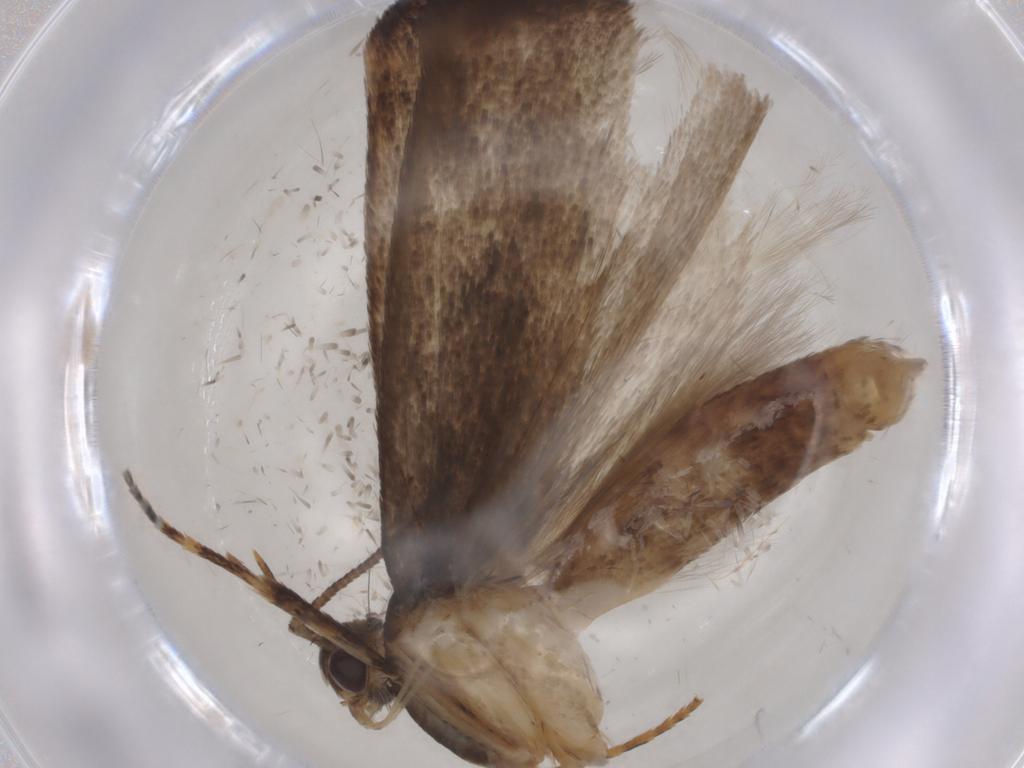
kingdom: Animalia
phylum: Arthropoda
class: Insecta
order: Lepidoptera
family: Gelechiidae
